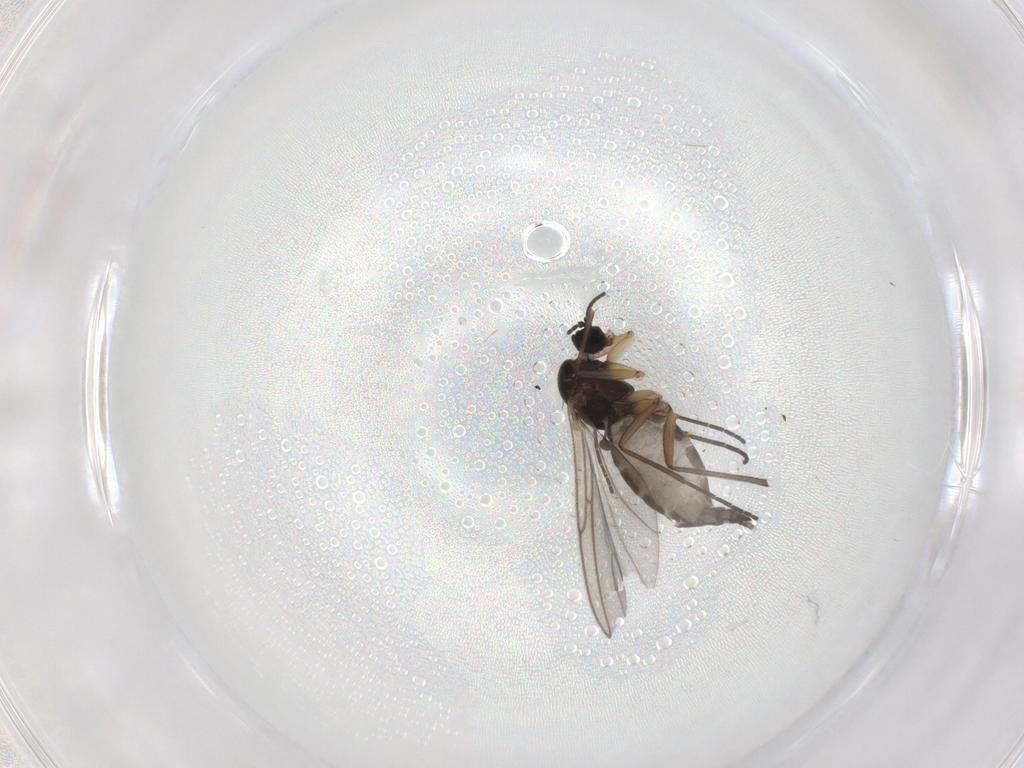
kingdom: Animalia
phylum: Arthropoda
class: Insecta
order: Diptera
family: Sciaridae
